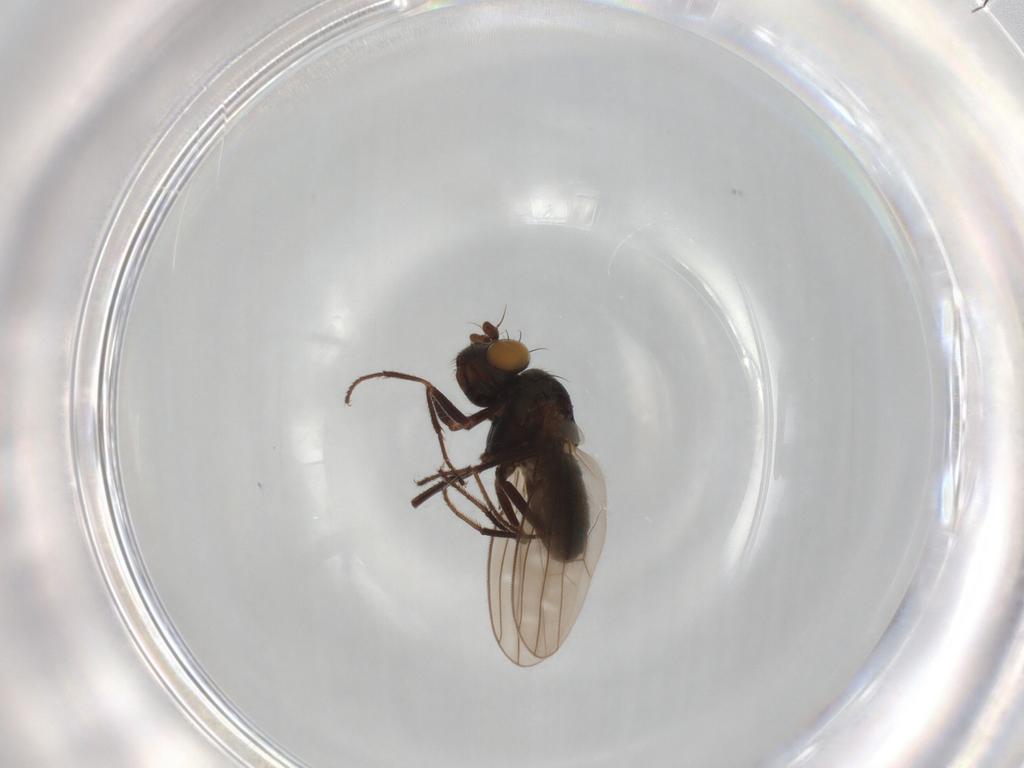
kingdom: Animalia
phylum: Arthropoda
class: Insecta
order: Diptera
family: Ephydridae
